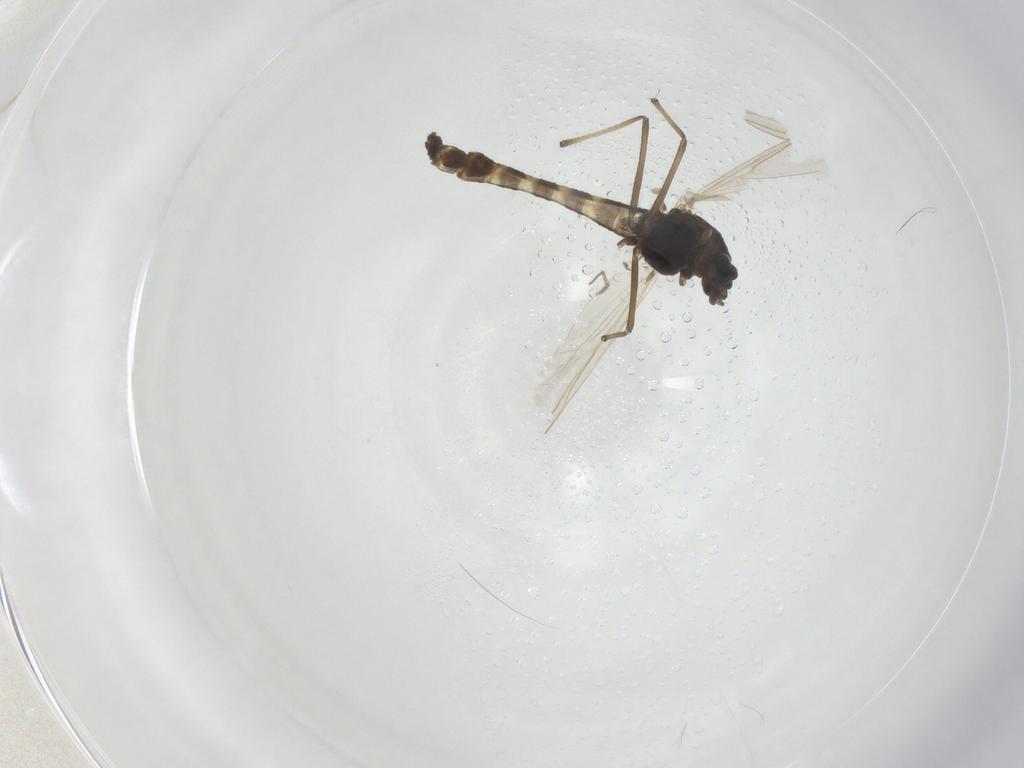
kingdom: Animalia
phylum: Arthropoda
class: Insecta
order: Diptera
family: Chironomidae
